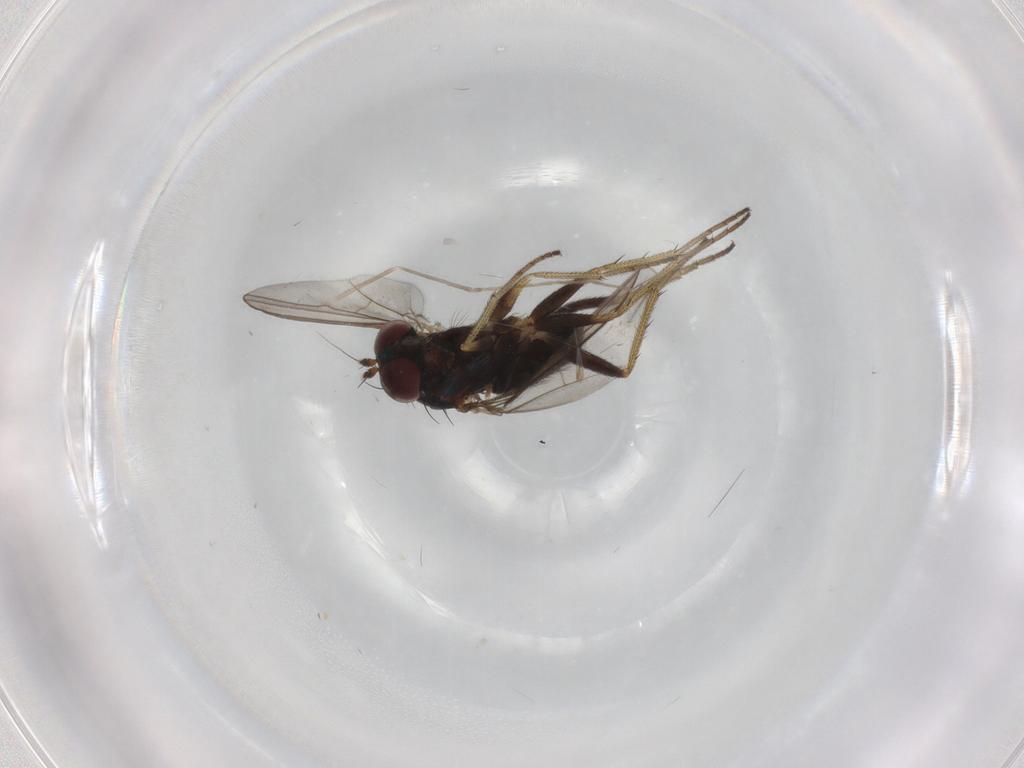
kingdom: Animalia
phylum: Arthropoda
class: Insecta
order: Diptera
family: Cecidomyiidae
